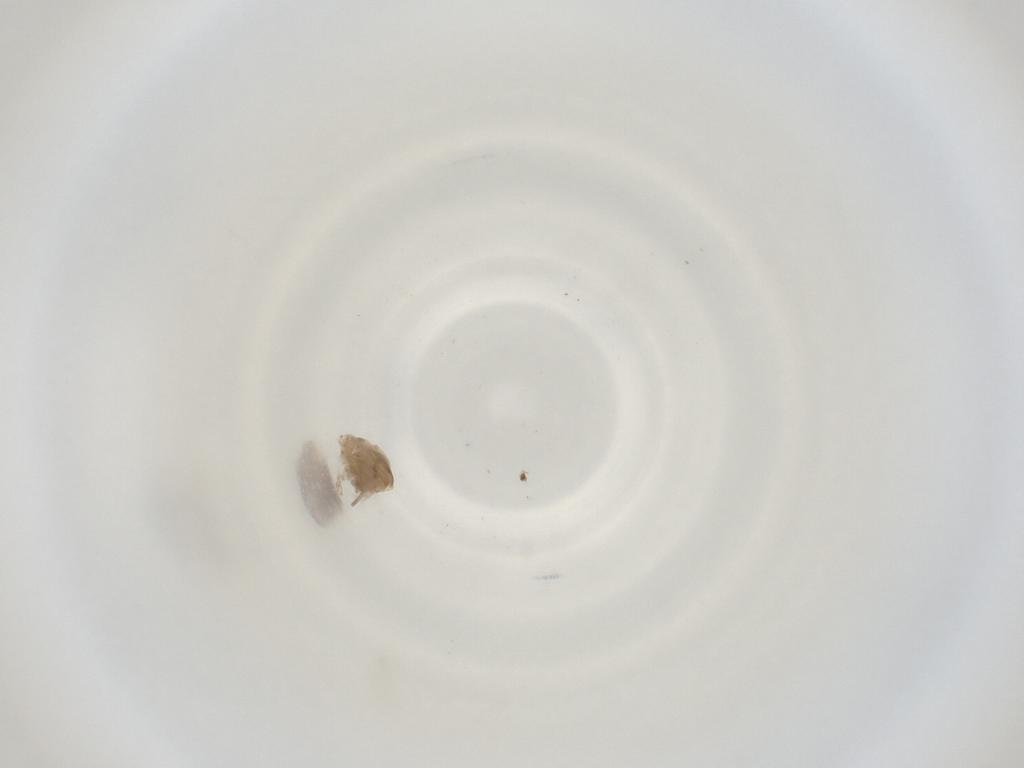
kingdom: Animalia
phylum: Arthropoda
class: Insecta
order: Diptera
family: Cecidomyiidae
